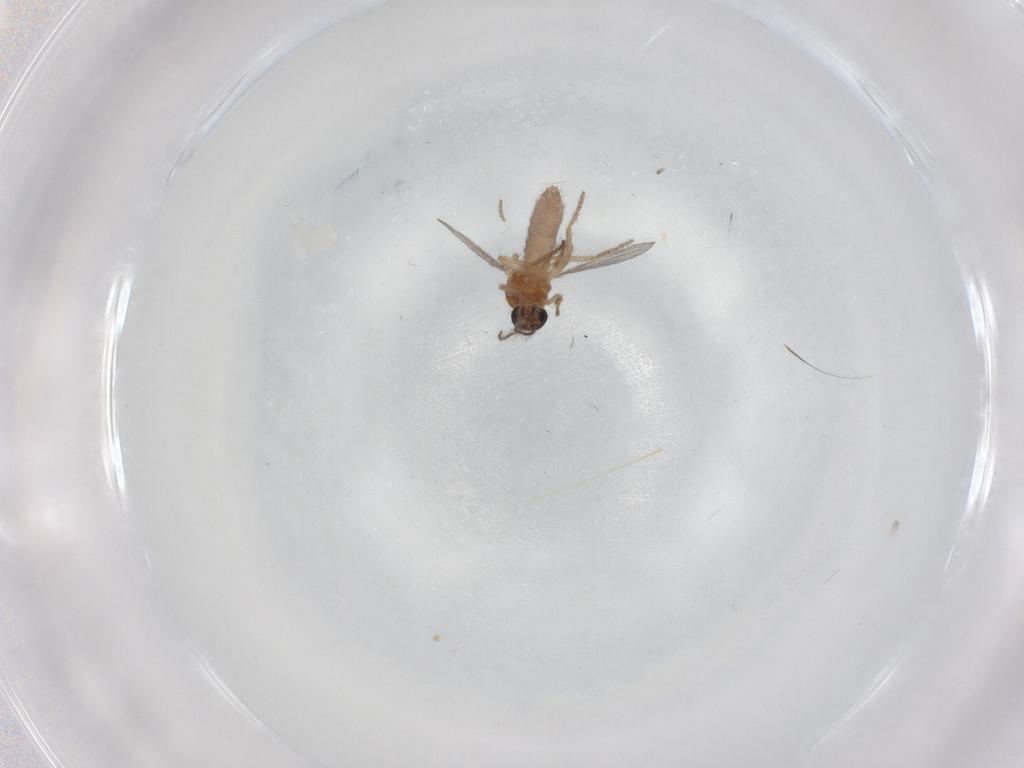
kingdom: Animalia
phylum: Arthropoda
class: Insecta
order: Diptera
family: Ceratopogonidae
